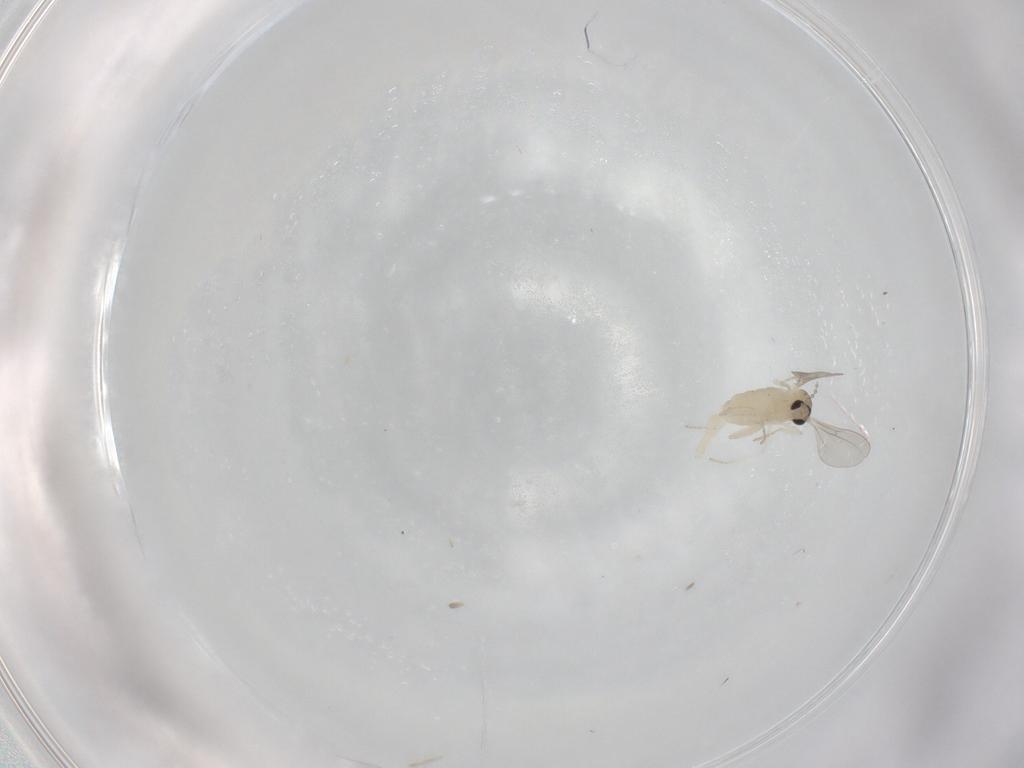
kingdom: Animalia
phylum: Arthropoda
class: Insecta
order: Diptera
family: Cecidomyiidae
